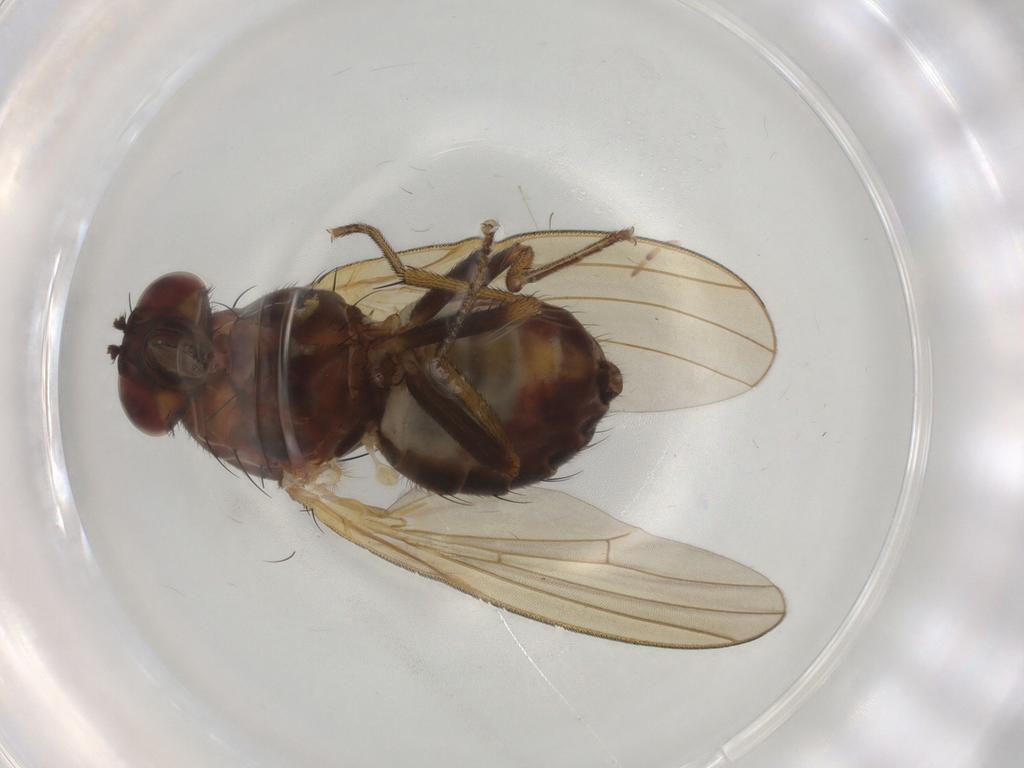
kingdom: Animalia
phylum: Arthropoda
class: Insecta
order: Diptera
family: Lauxaniidae
